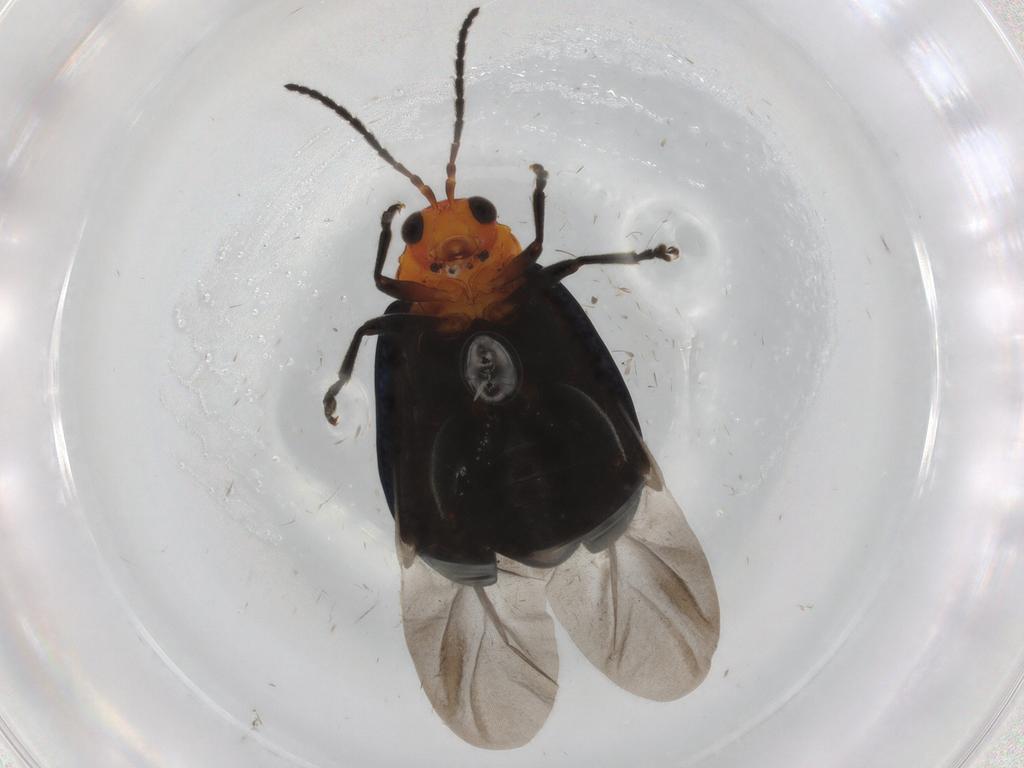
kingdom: Animalia
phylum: Arthropoda
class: Insecta
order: Coleoptera
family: Chrysomelidae
